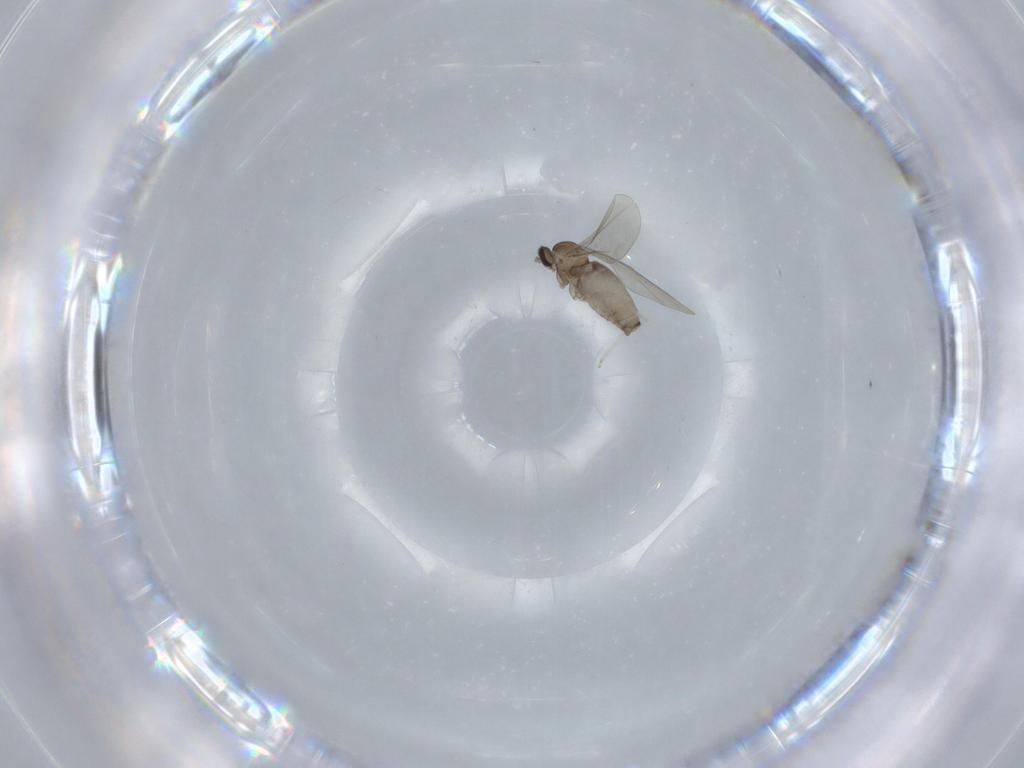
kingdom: Animalia
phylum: Arthropoda
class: Insecta
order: Diptera
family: Cecidomyiidae
